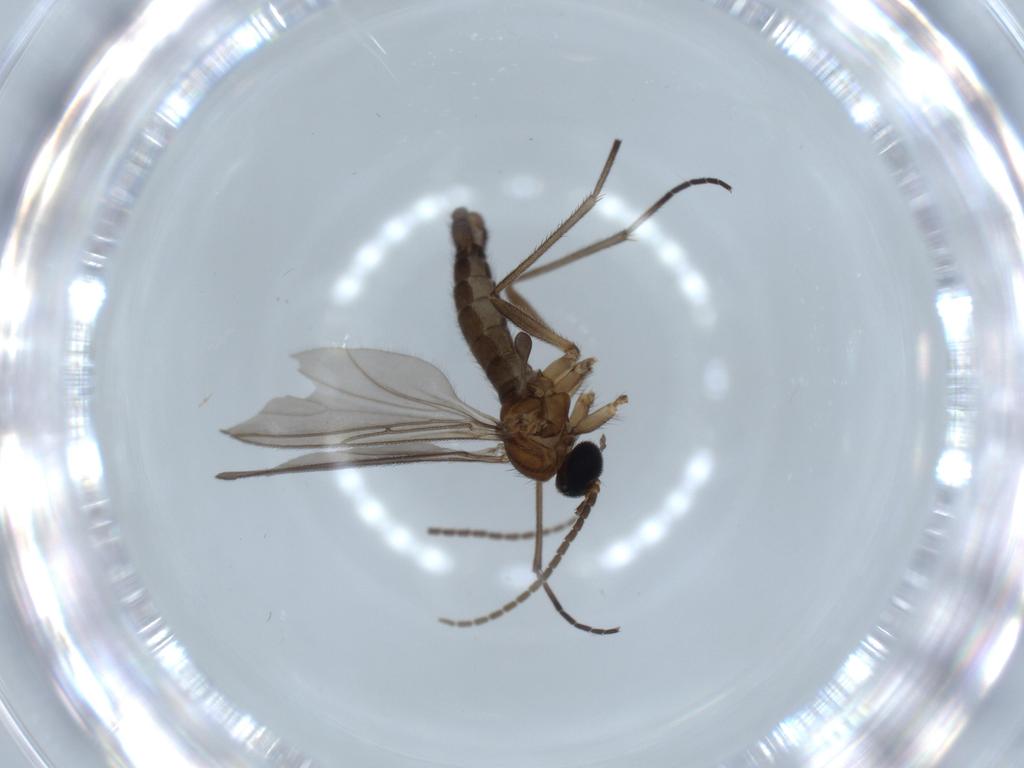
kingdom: Animalia
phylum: Arthropoda
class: Insecta
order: Diptera
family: Sciaridae
